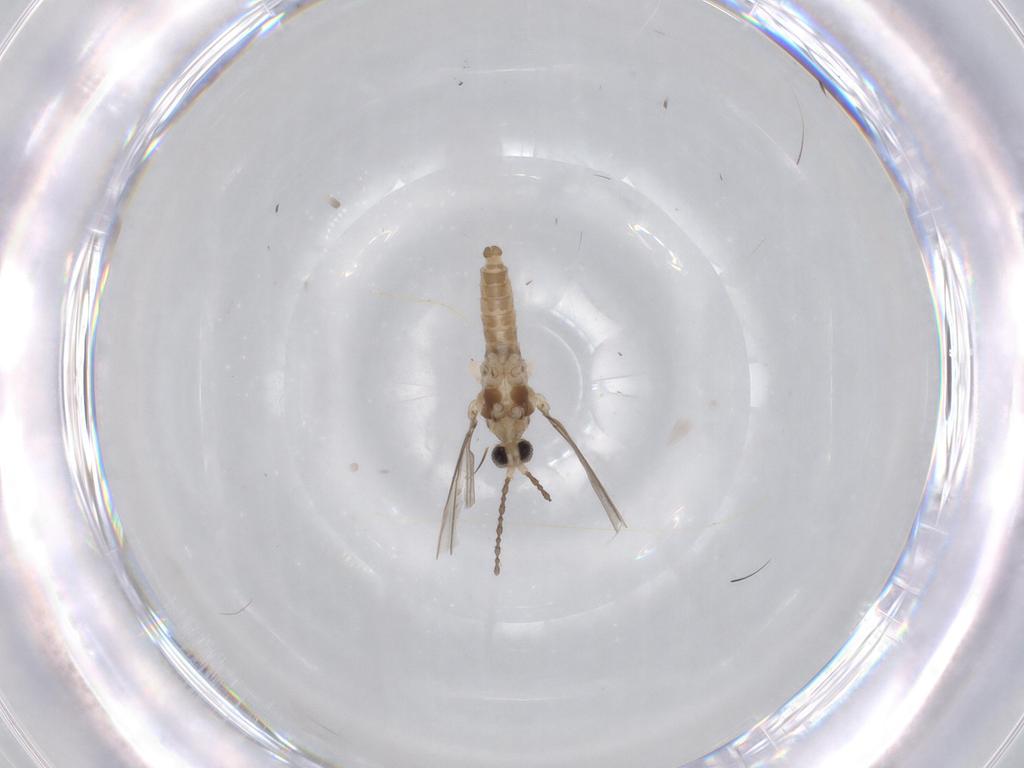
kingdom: Animalia
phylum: Arthropoda
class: Insecta
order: Diptera
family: Cecidomyiidae
